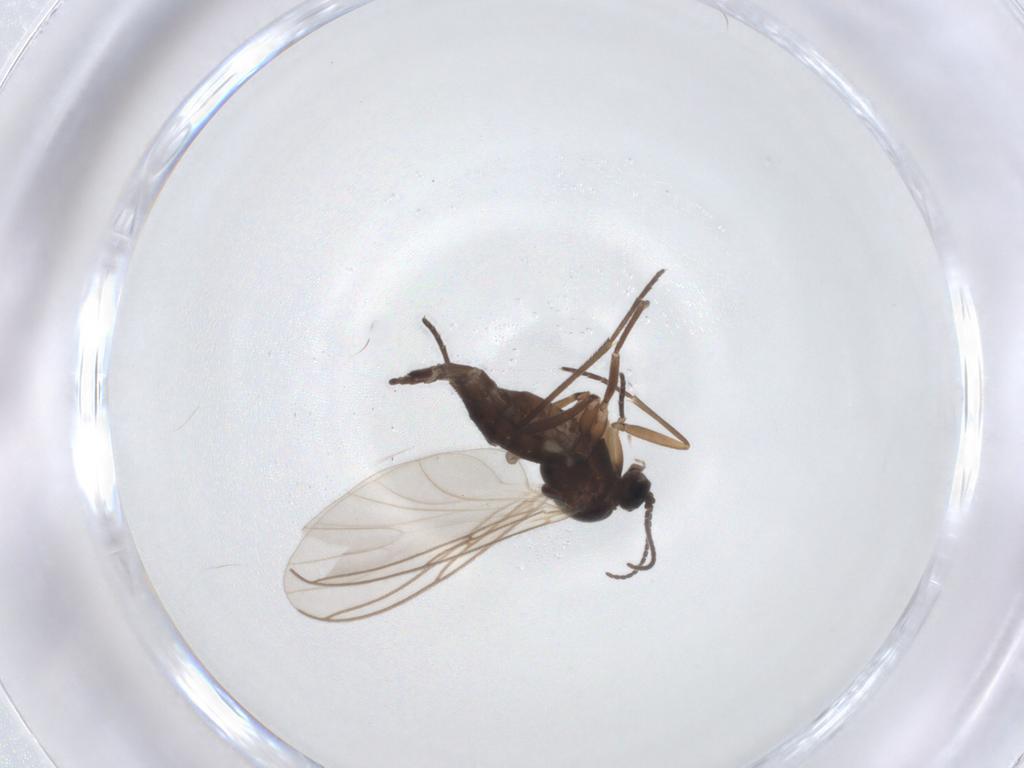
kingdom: Animalia
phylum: Arthropoda
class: Insecta
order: Diptera
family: Sciaridae
